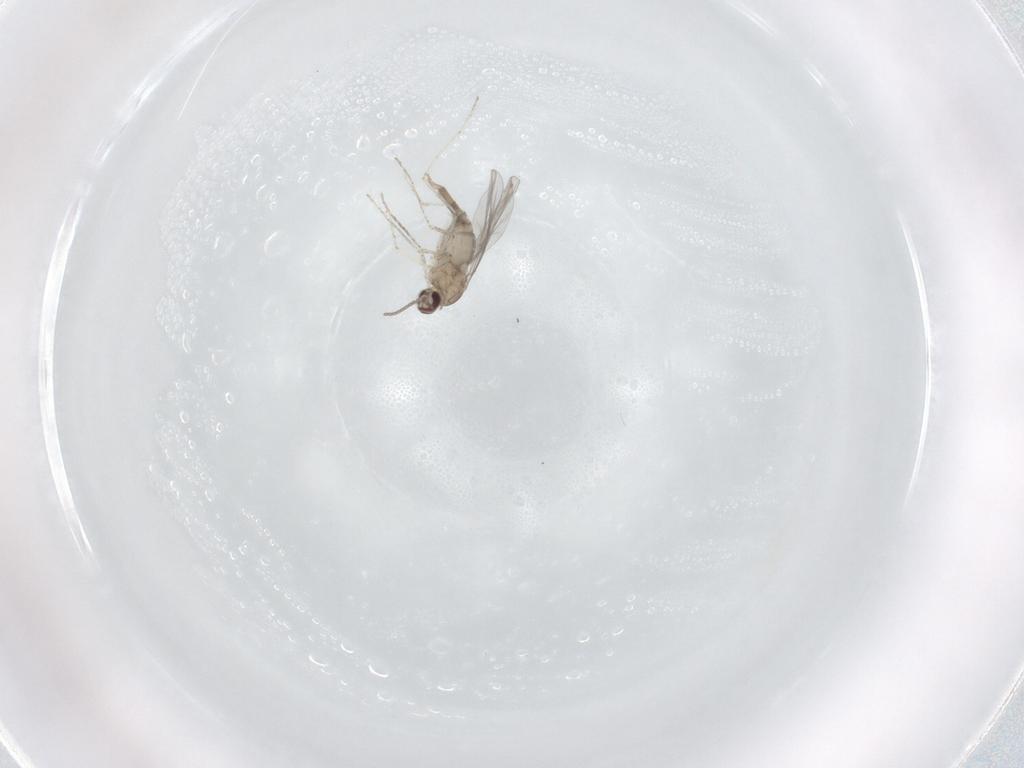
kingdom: Animalia
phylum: Arthropoda
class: Insecta
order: Diptera
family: Cecidomyiidae
